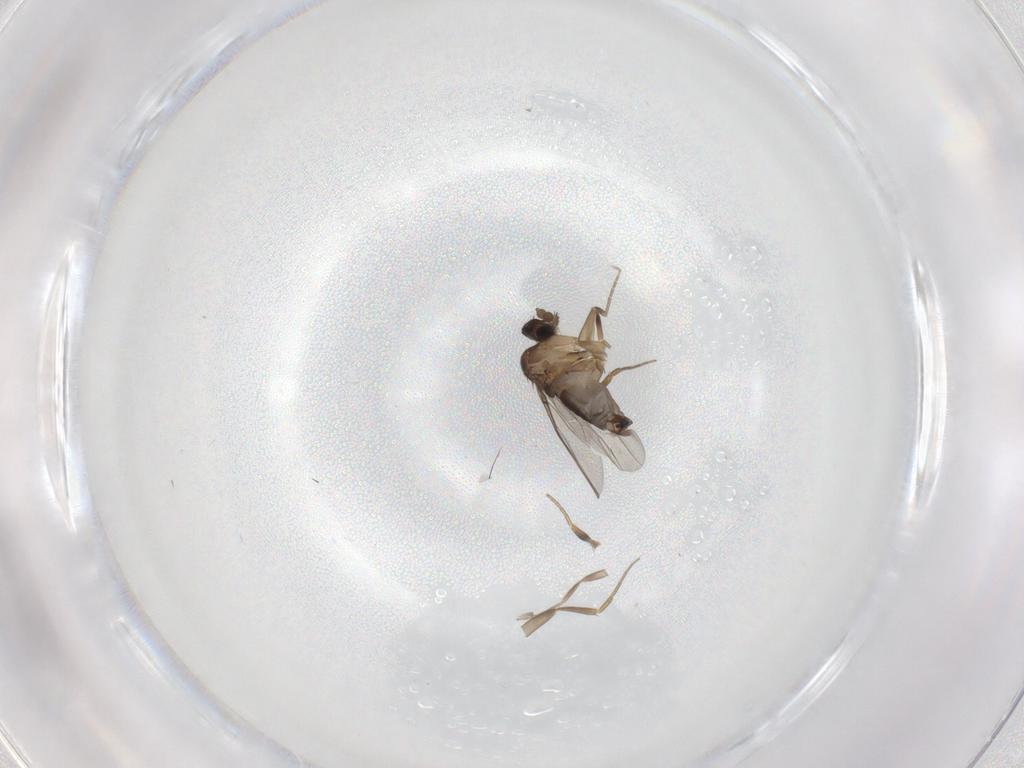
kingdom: Animalia
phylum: Arthropoda
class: Insecta
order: Diptera
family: Phoridae
